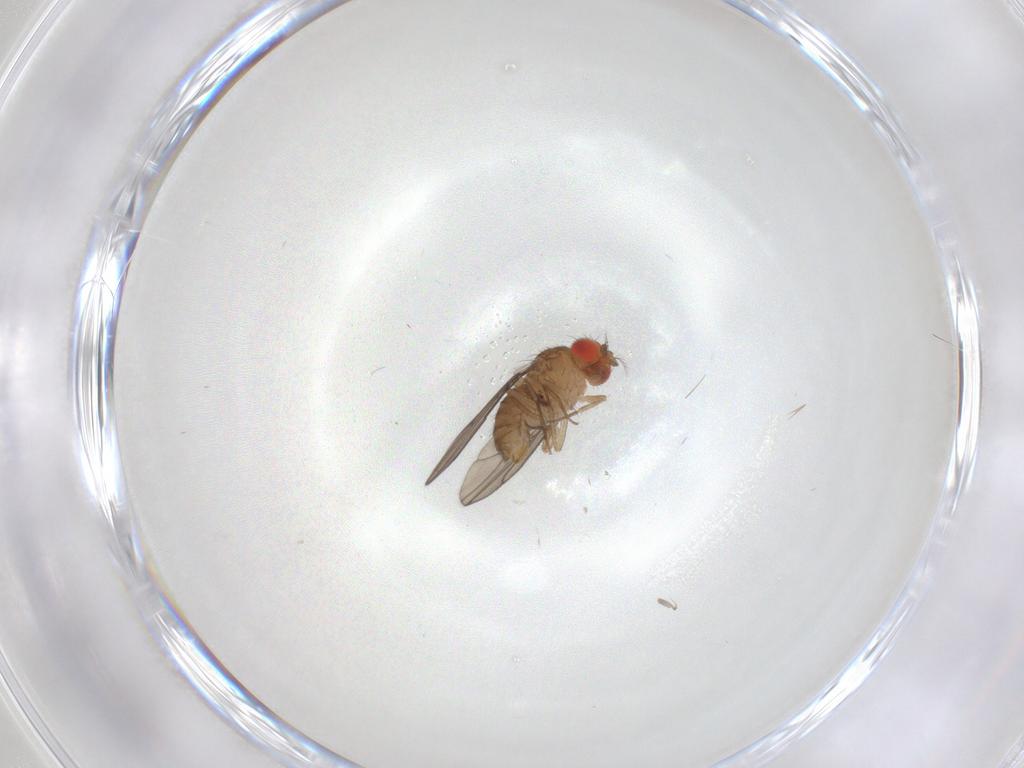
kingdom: Animalia
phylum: Arthropoda
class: Insecta
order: Diptera
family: Drosophilidae
